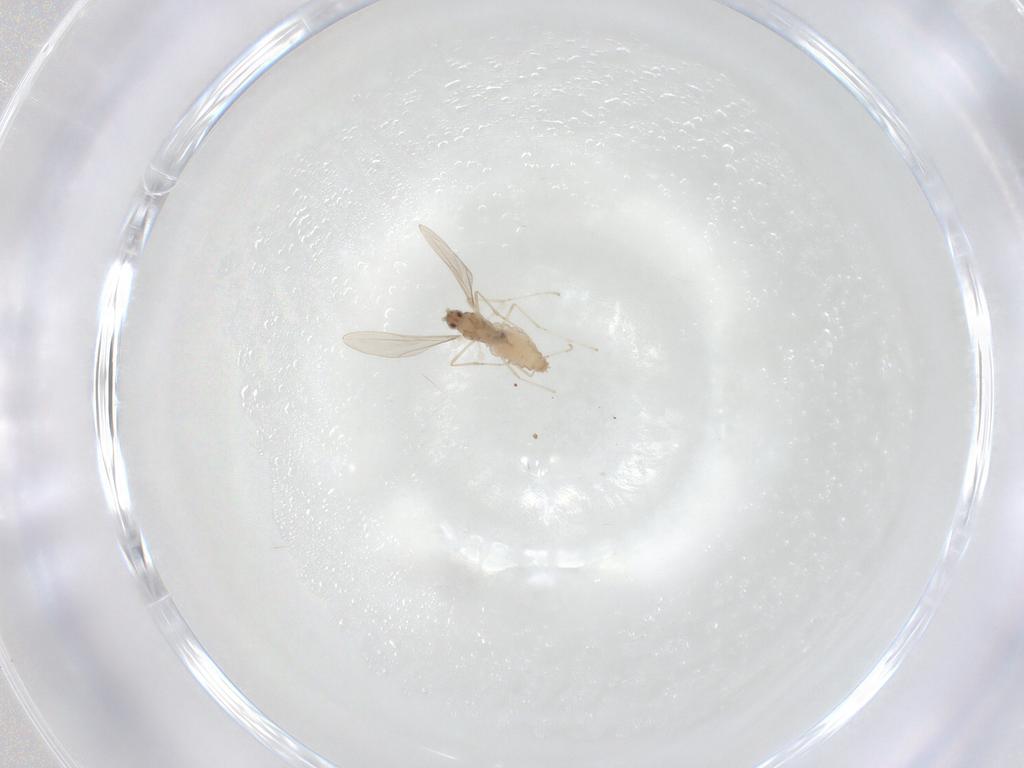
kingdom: Animalia
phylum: Arthropoda
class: Insecta
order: Diptera
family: Cecidomyiidae
